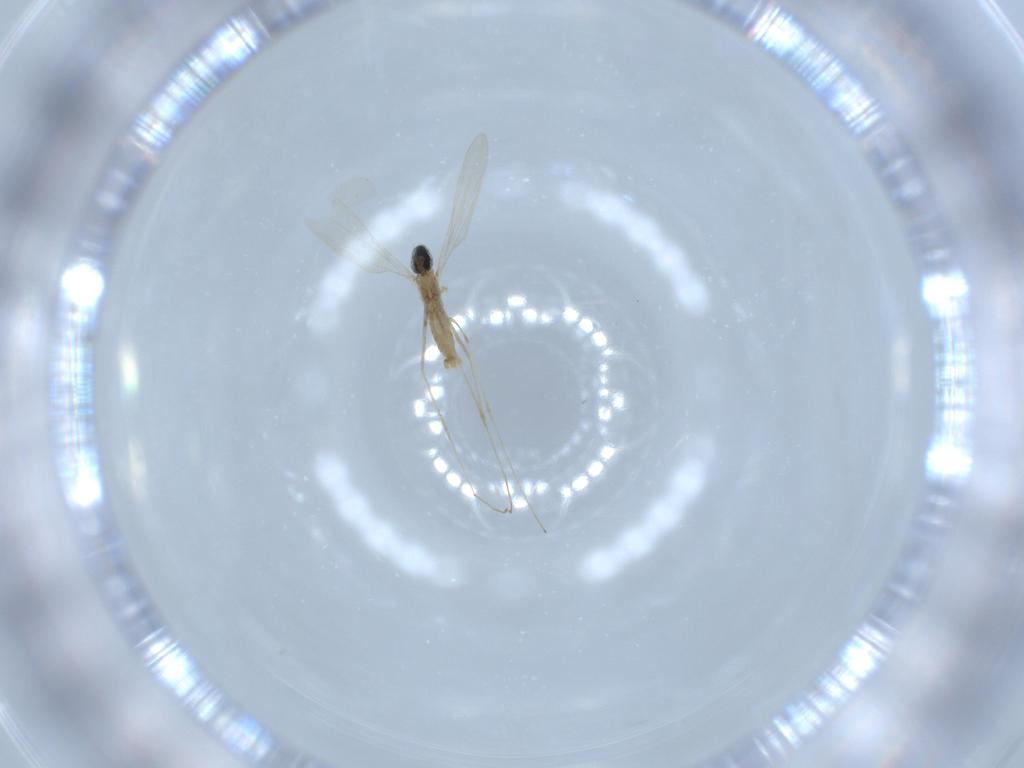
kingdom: Animalia
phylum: Arthropoda
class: Insecta
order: Diptera
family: Cecidomyiidae
